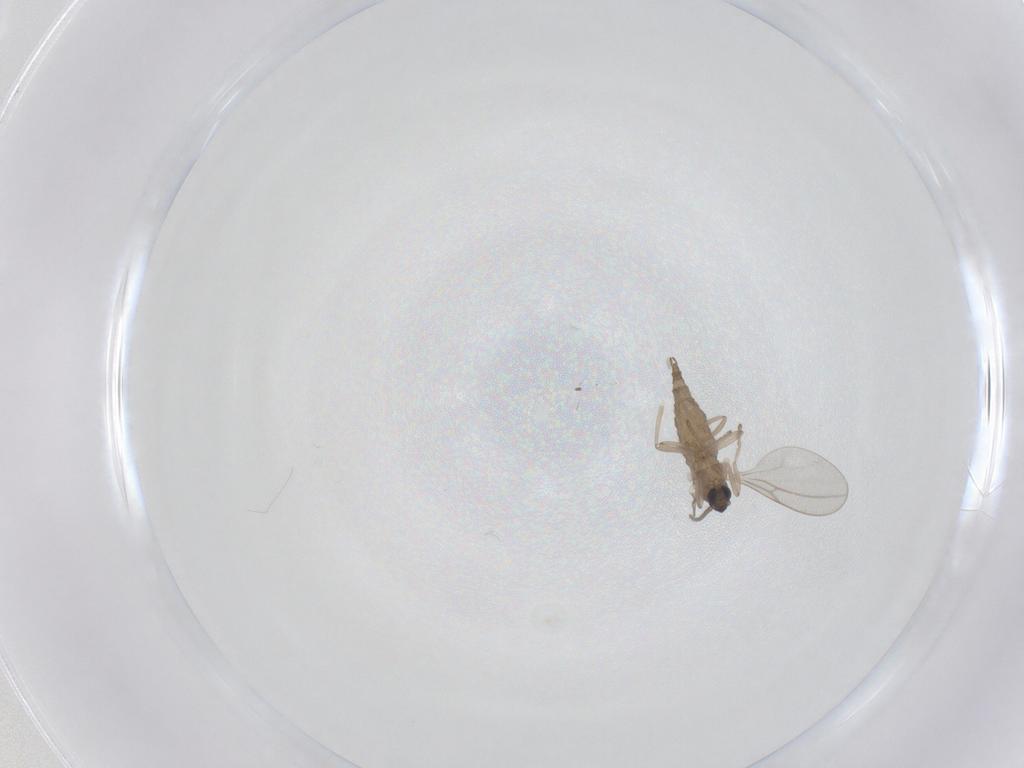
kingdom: Animalia
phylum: Arthropoda
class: Insecta
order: Diptera
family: Cecidomyiidae
